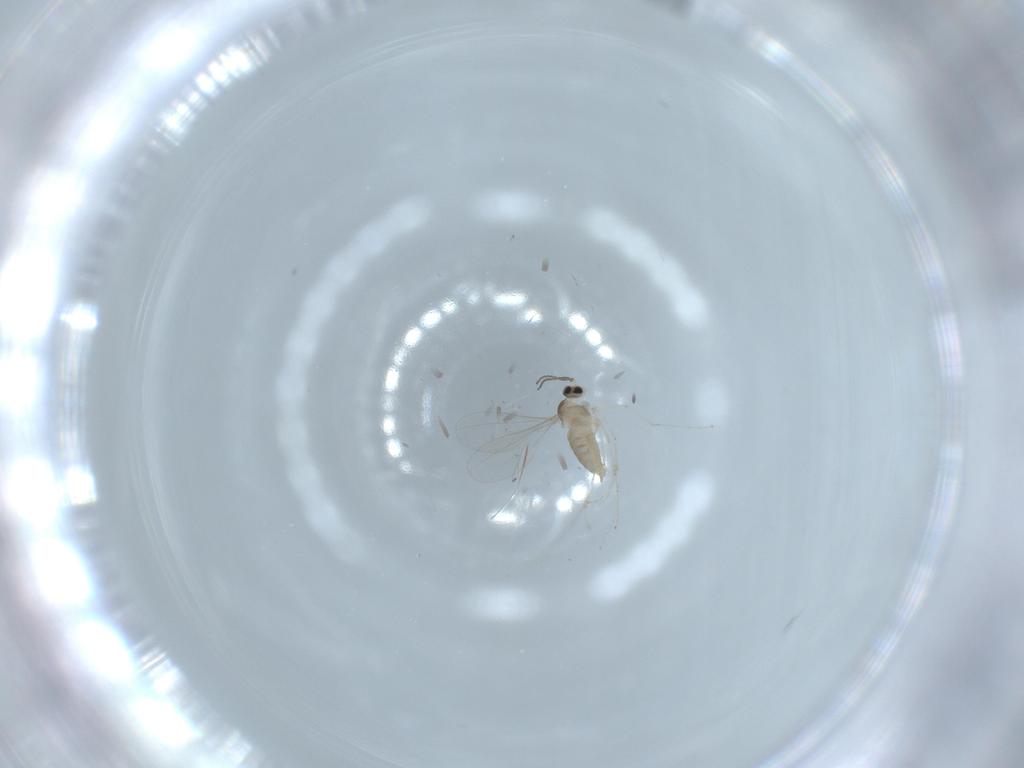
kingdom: Animalia
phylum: Arthropoda
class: Insecta
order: Diptera
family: Cecidomyiidae
